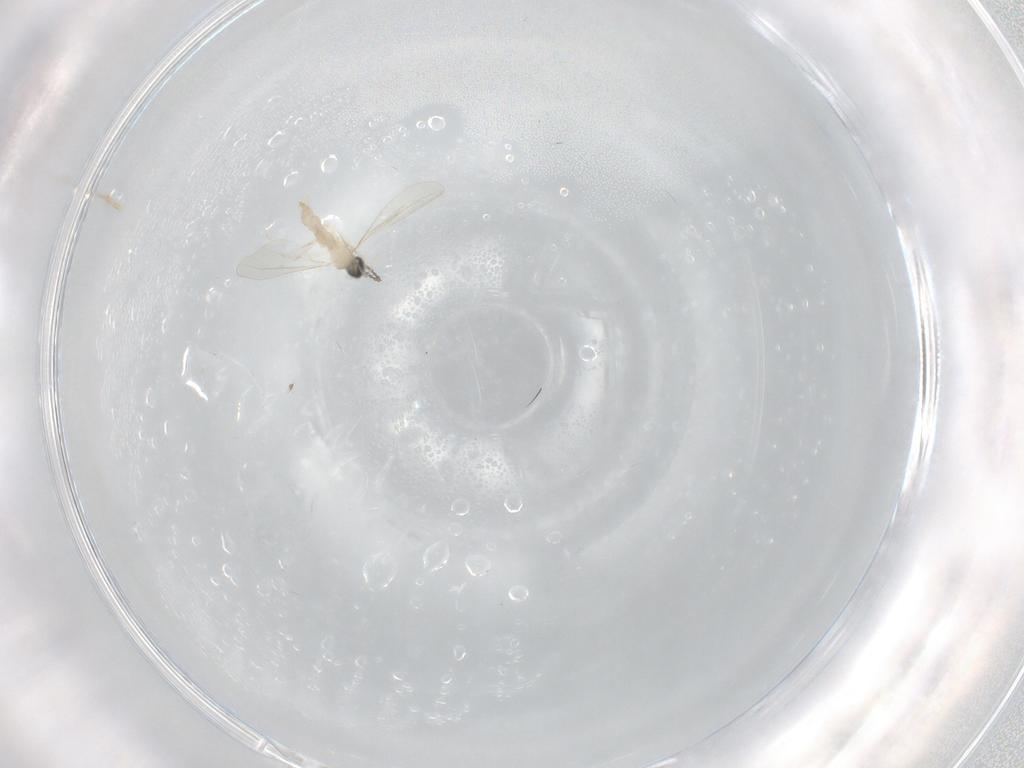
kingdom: Animalia
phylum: Arthropoda
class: Insecta
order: Diptera
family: Cecidomyiidae
